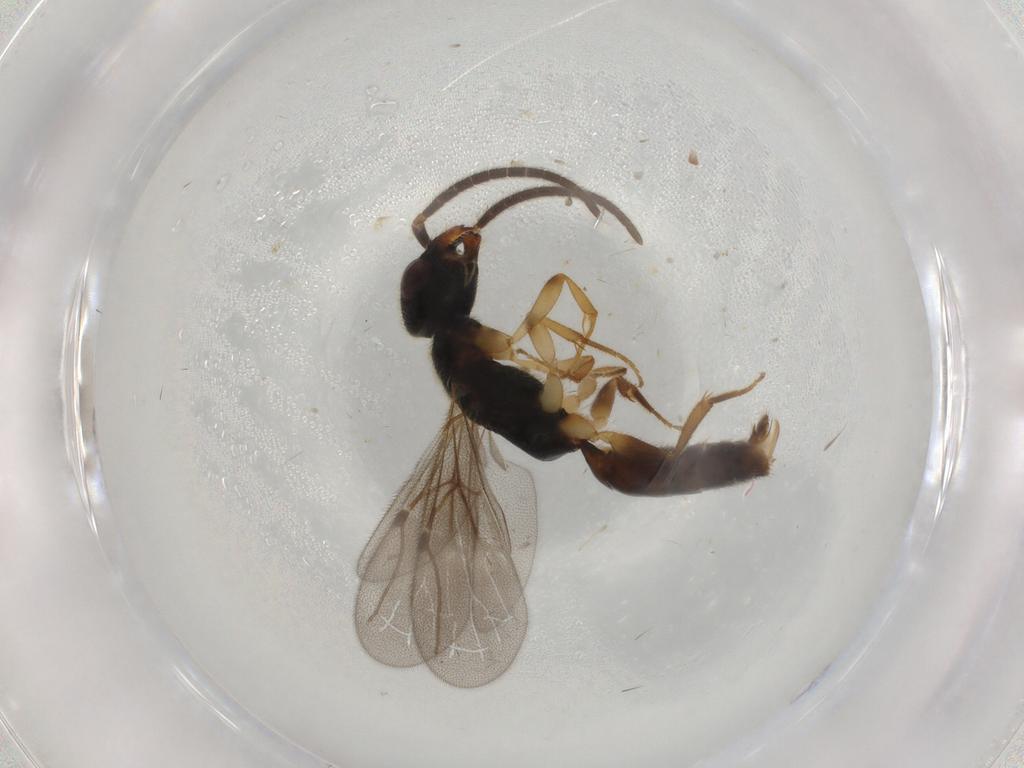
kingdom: Animalia
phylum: Arthropoda
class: Insecta
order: Hymenoptera
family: Bethylidae
